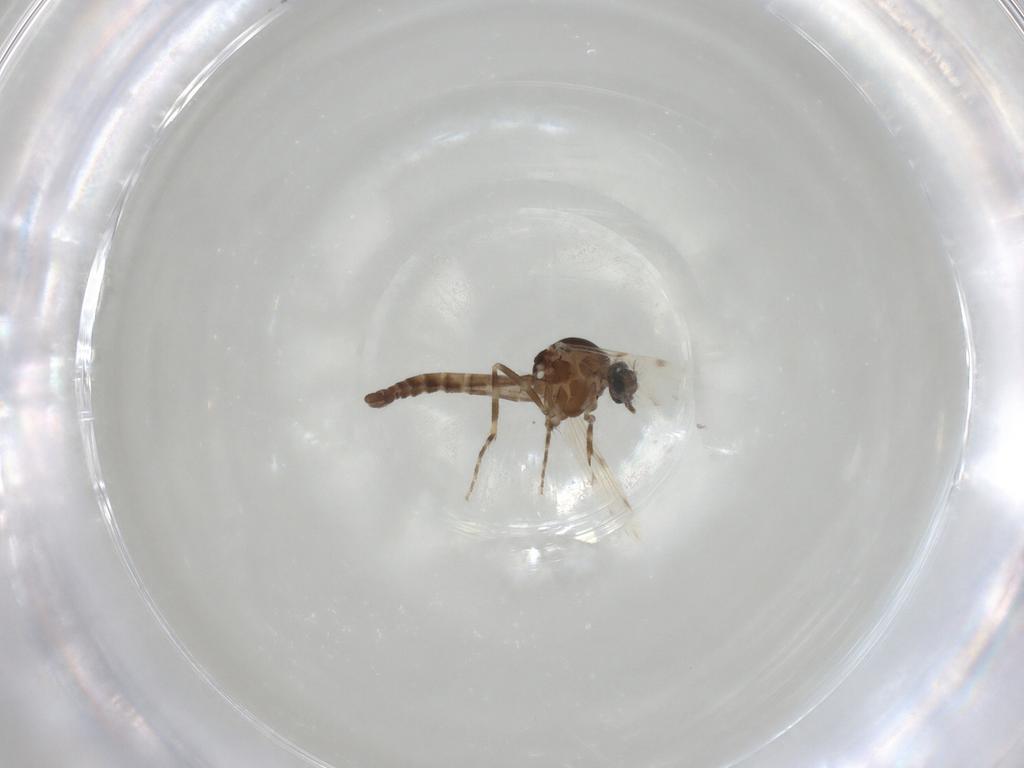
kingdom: Animalia
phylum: Arthropoda
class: Insecta
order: Diptera
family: Ceratopogonidae
